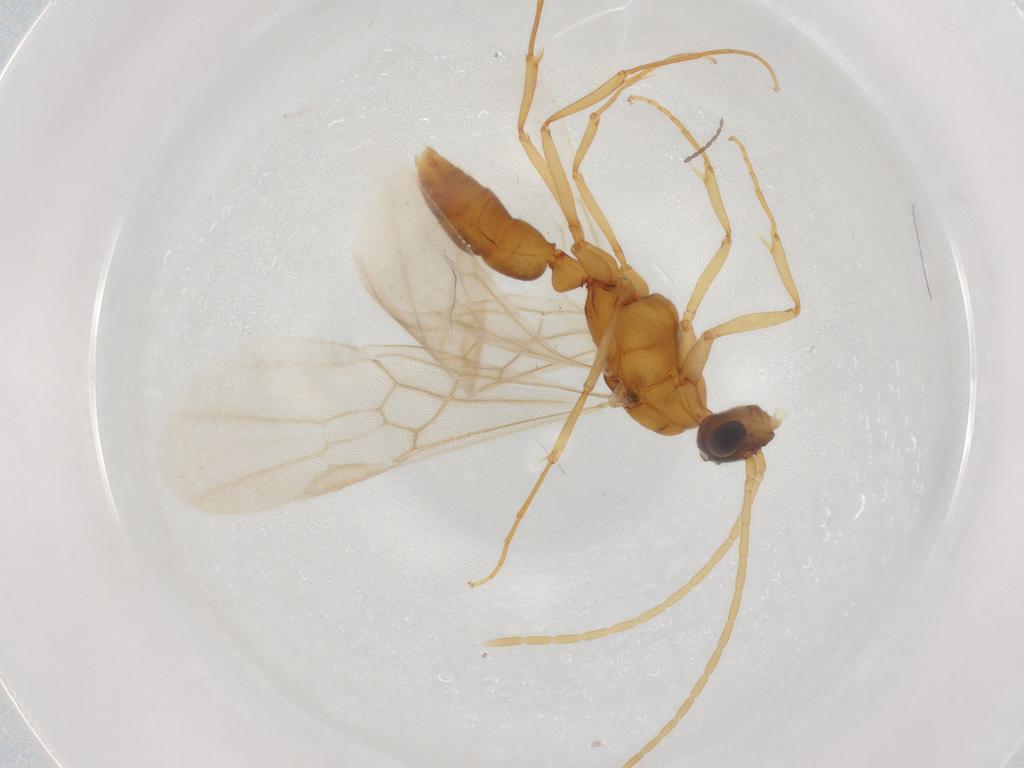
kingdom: Animalia
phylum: Arthropoda
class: Insecta
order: Hymenoptera
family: Formicidae
